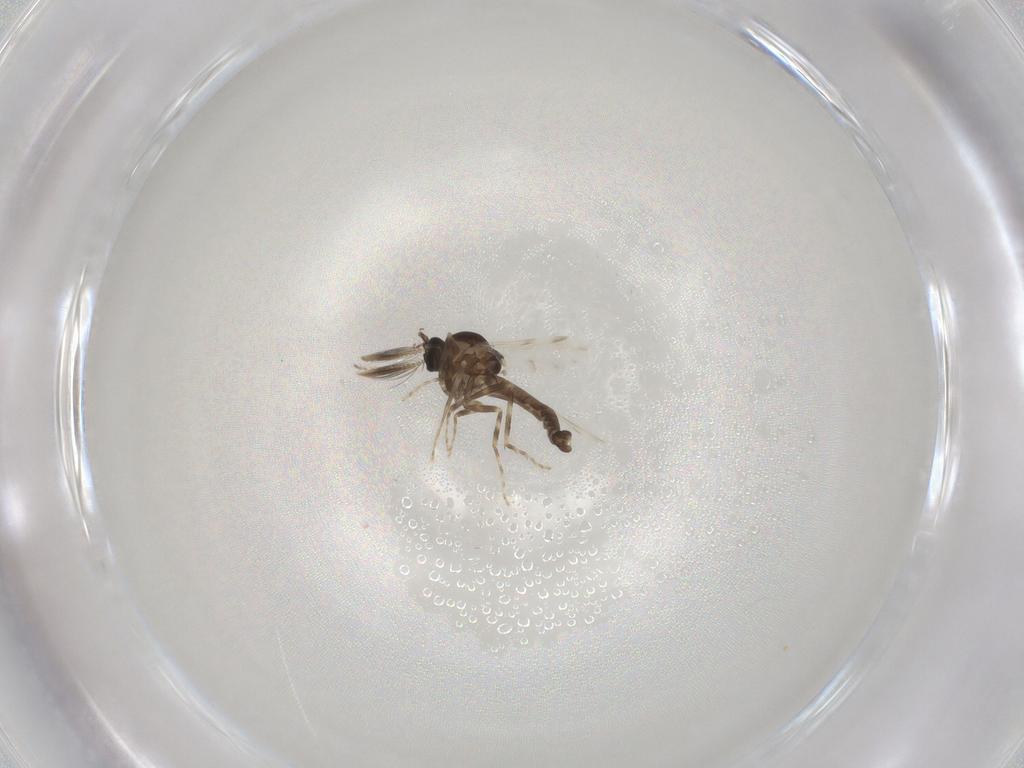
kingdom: Animalia
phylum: Arthropoda
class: Insecta
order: Diptera
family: Ceratopogonidae
